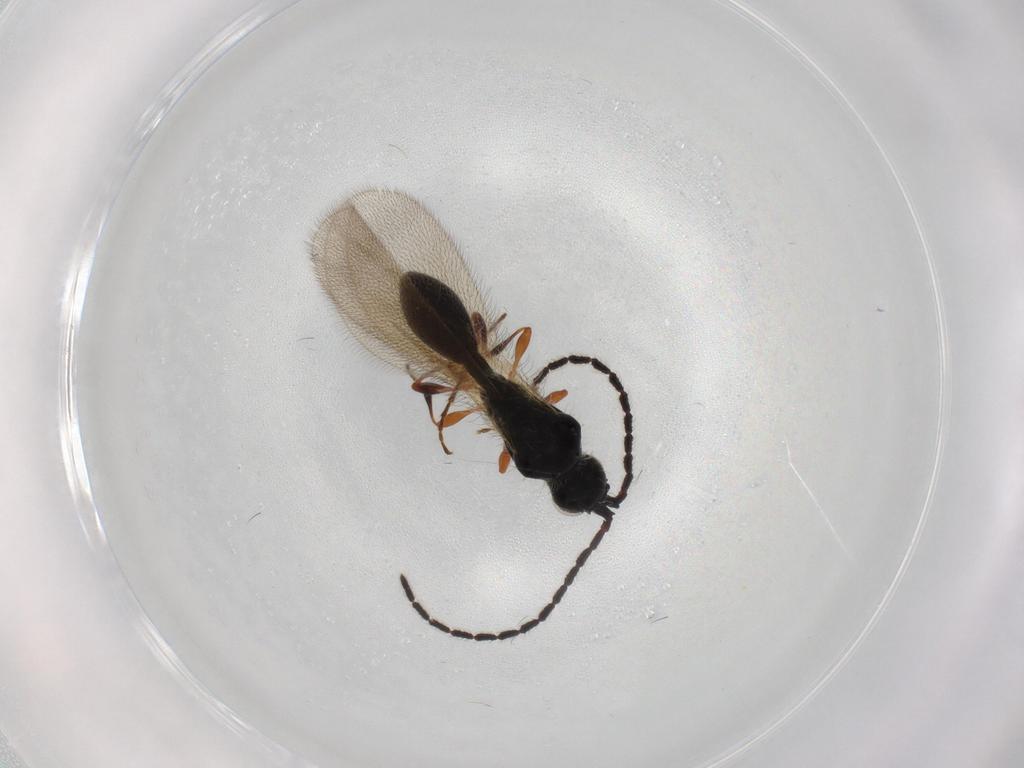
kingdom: Animalia
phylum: Arthropoda
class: Insecta
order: Hymenoptera
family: Diapriidae
